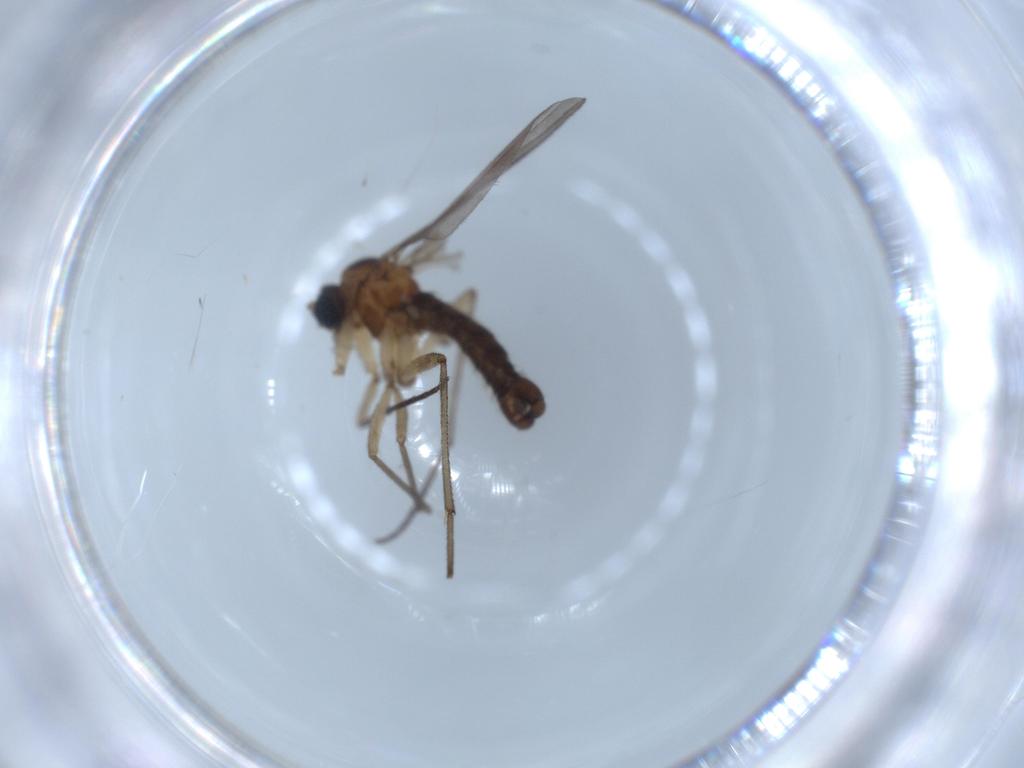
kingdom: Animalia
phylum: Arthropoda
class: Insecta
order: Diptera
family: Sciaridae
